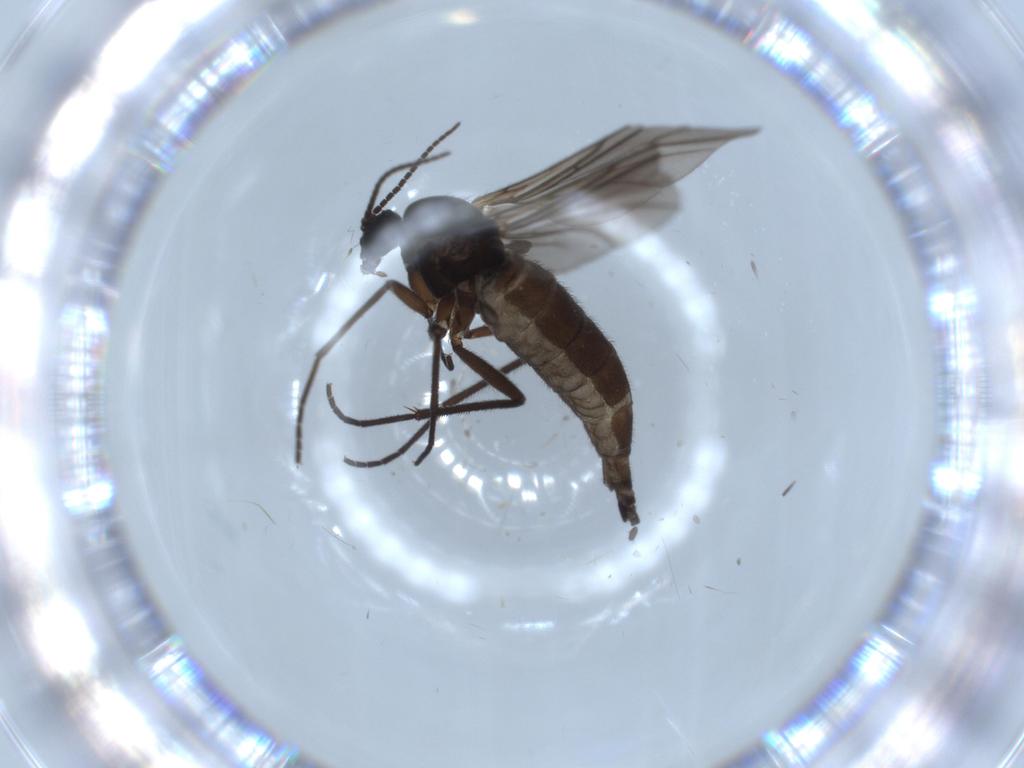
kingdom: Animalia
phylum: Arthropoda
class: Insecta
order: Diptera
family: Sciaridae
